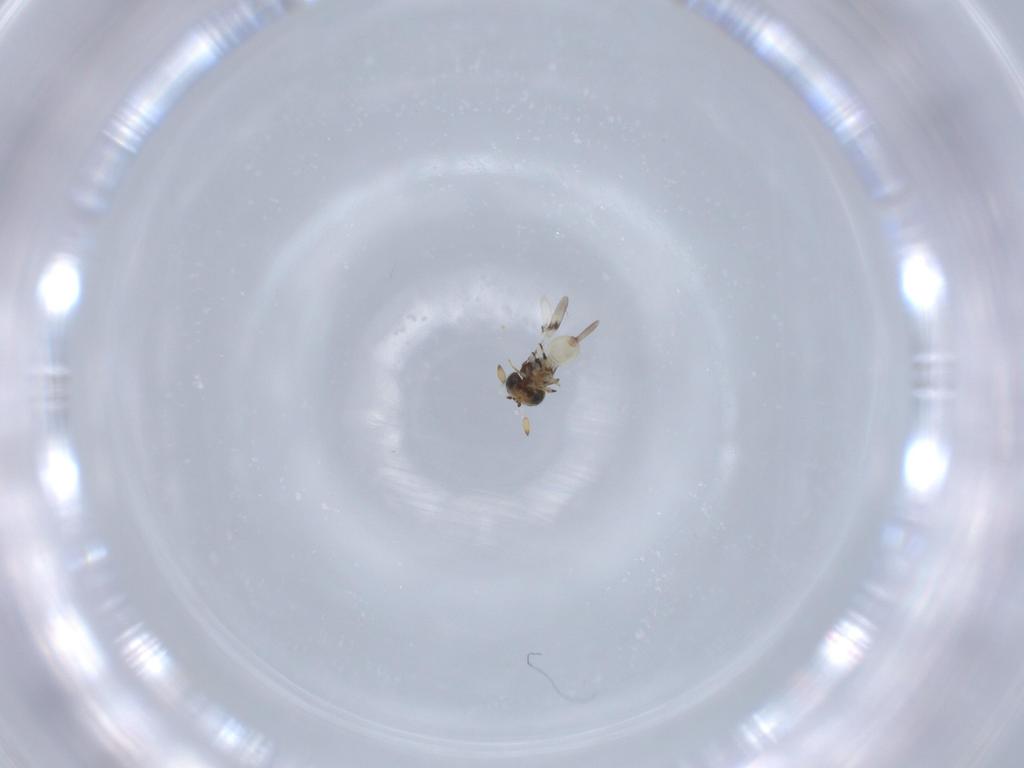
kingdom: Animalia
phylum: Arthropoda
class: Insecta
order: Hymenoptera
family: Scelionidae
